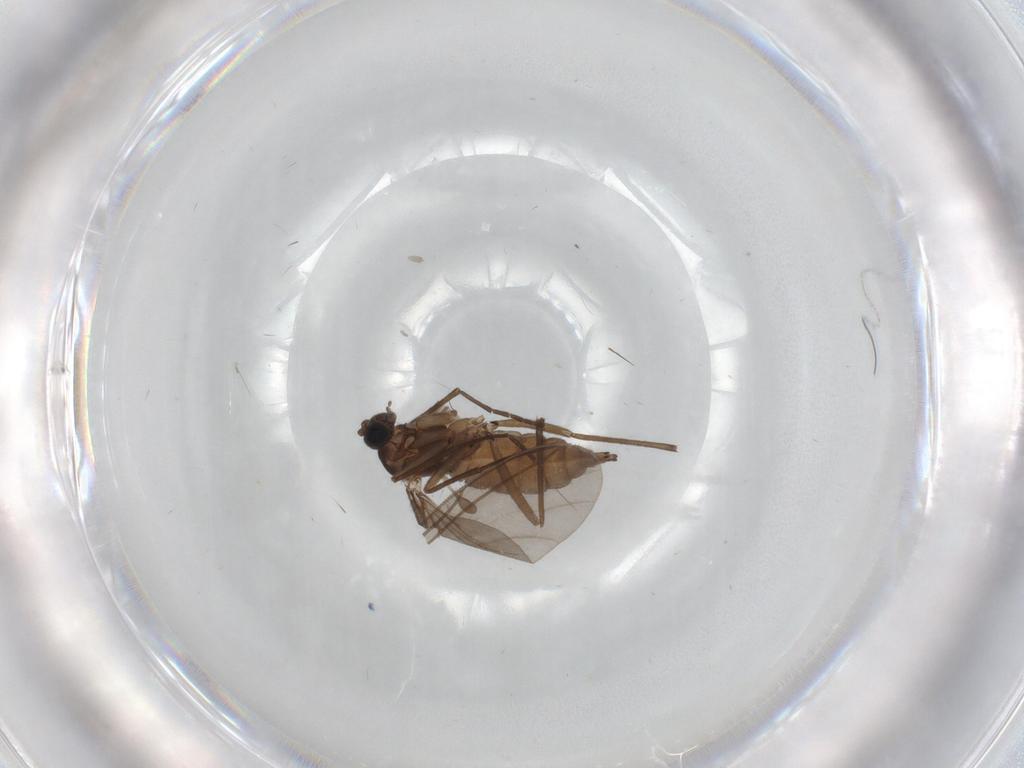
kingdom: Animalia
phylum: Arthropoda
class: Insecta
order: Diptera
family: Sciaridae
